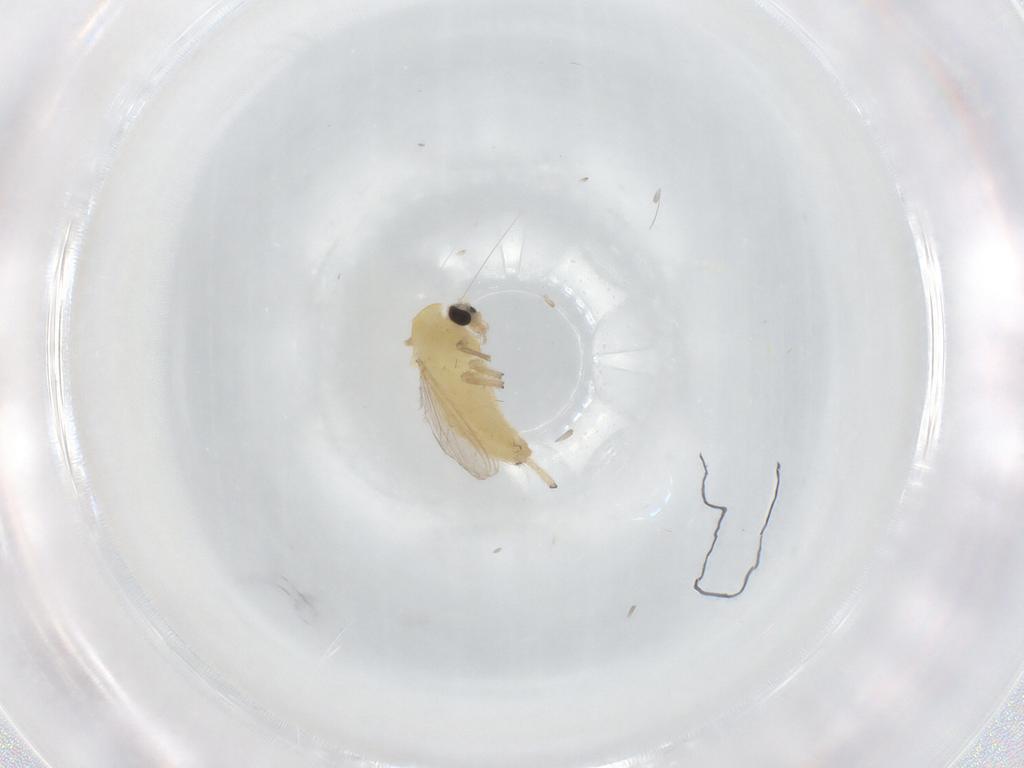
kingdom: Animalia
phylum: Arthropoda
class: Insecta
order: Diptera
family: Chironomidae
